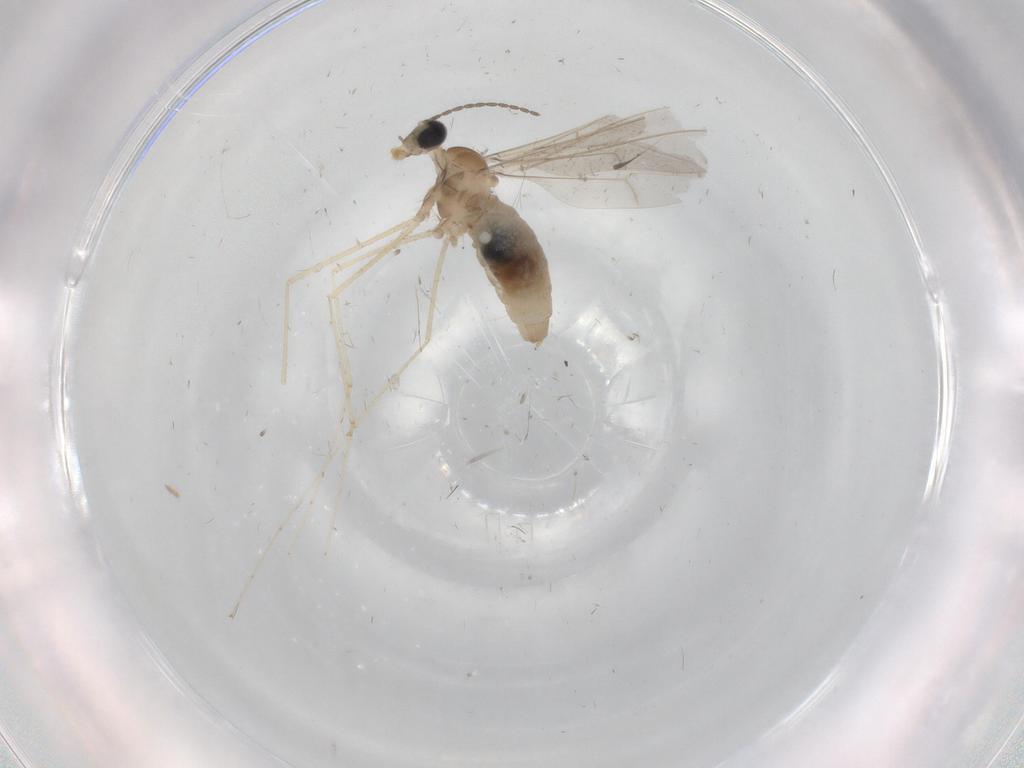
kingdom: Animalia
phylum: Arthropoda
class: Insecta
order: Diptera
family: Cecidomyiidae
